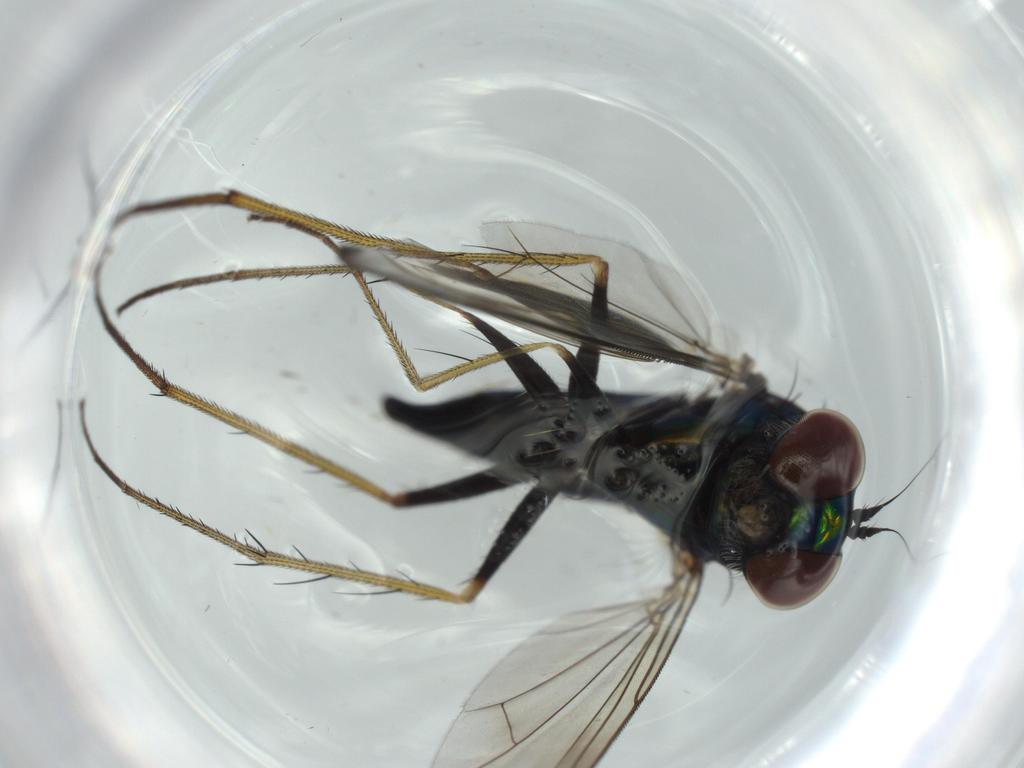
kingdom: Animalia
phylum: Arthropoda
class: Insecta
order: Diptera
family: Dolichopodidae
